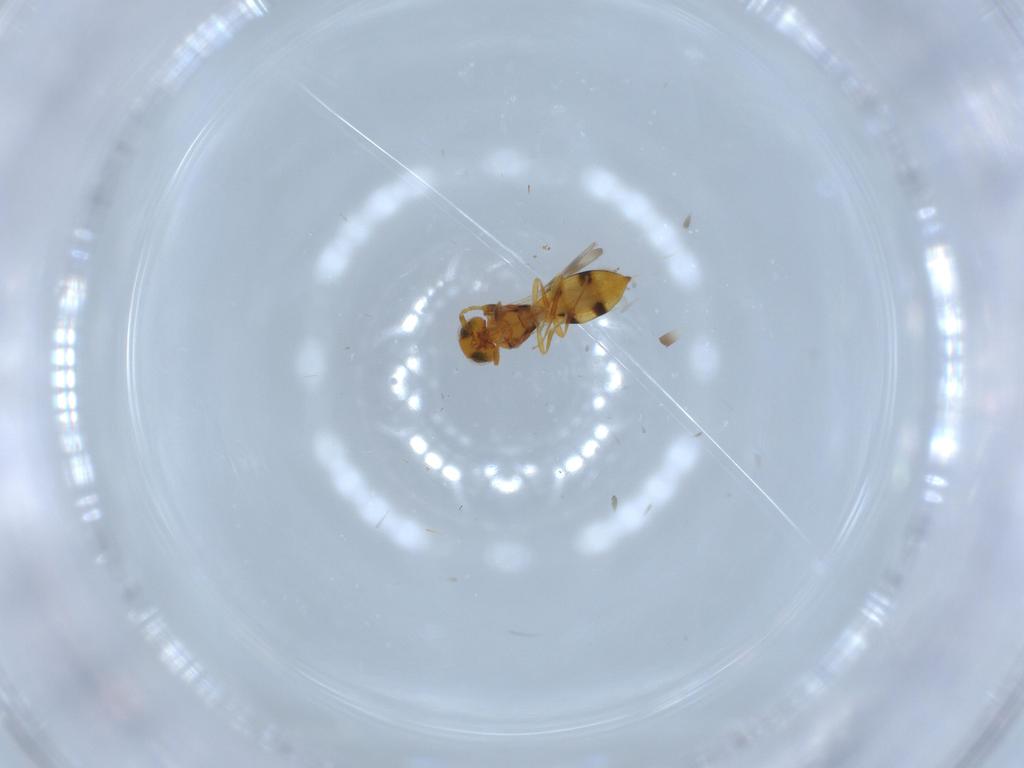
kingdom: Animalia
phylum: Arthropoda
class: Insecta
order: Hymenoptera
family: Scelionidae
